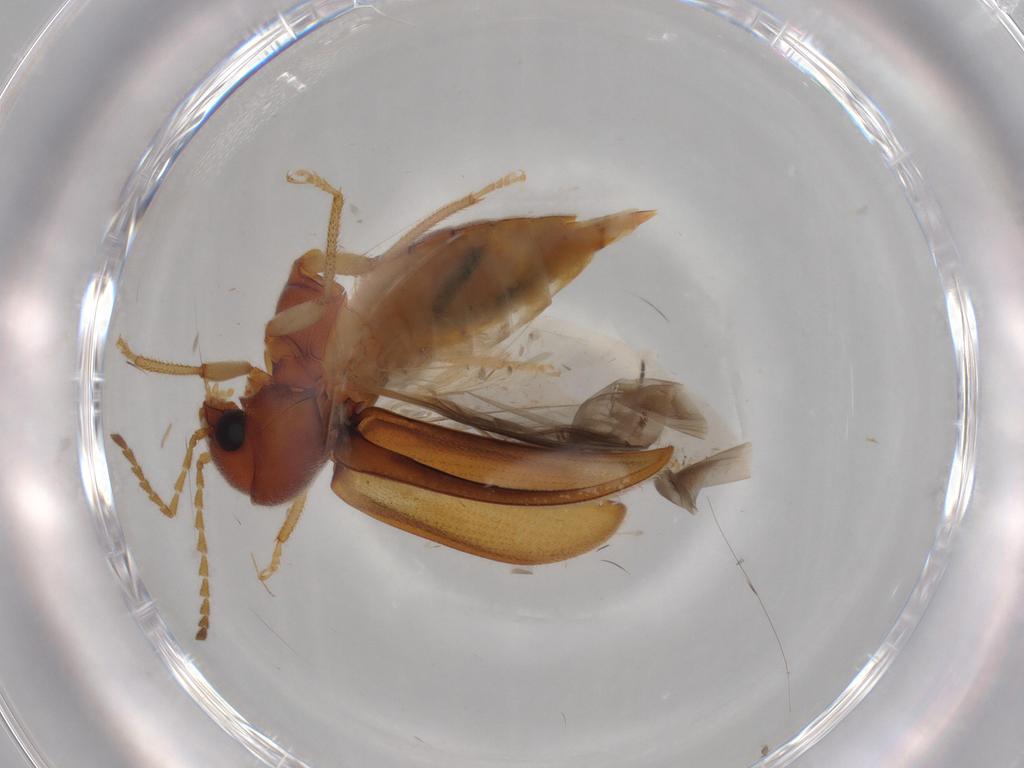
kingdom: Animalia
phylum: Arthropoda
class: Insecta
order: Coleoptera
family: Ptilodactylidae
